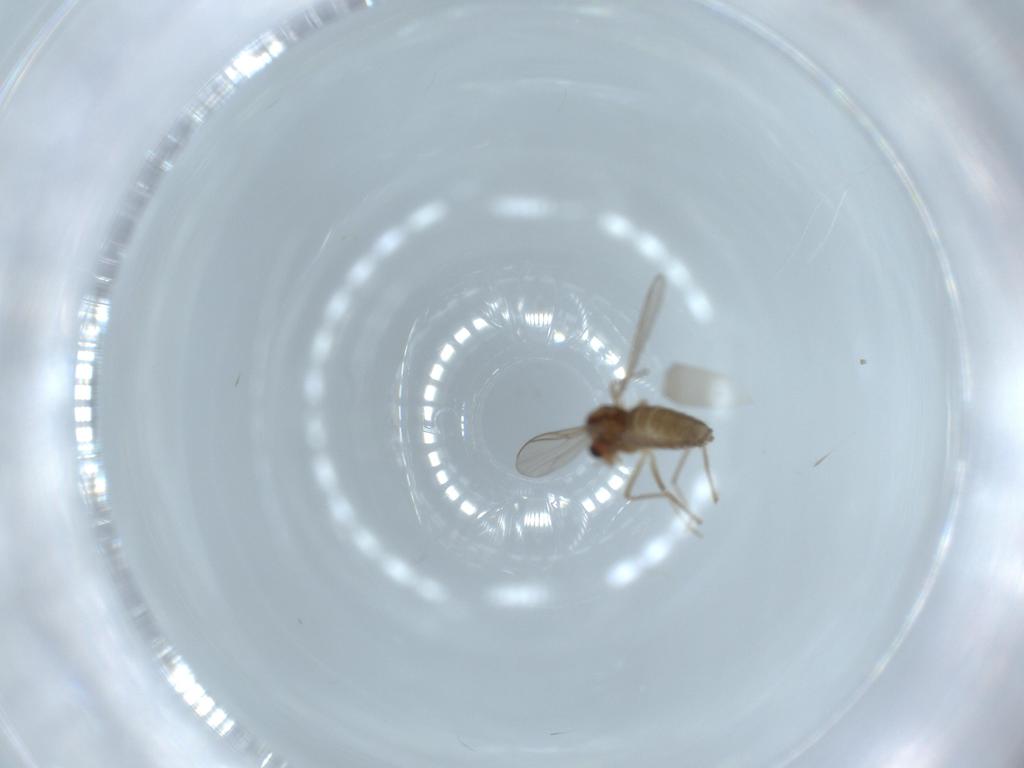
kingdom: Animalia
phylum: Arthropoda
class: Insecta
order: Diptera
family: Chironomidae
